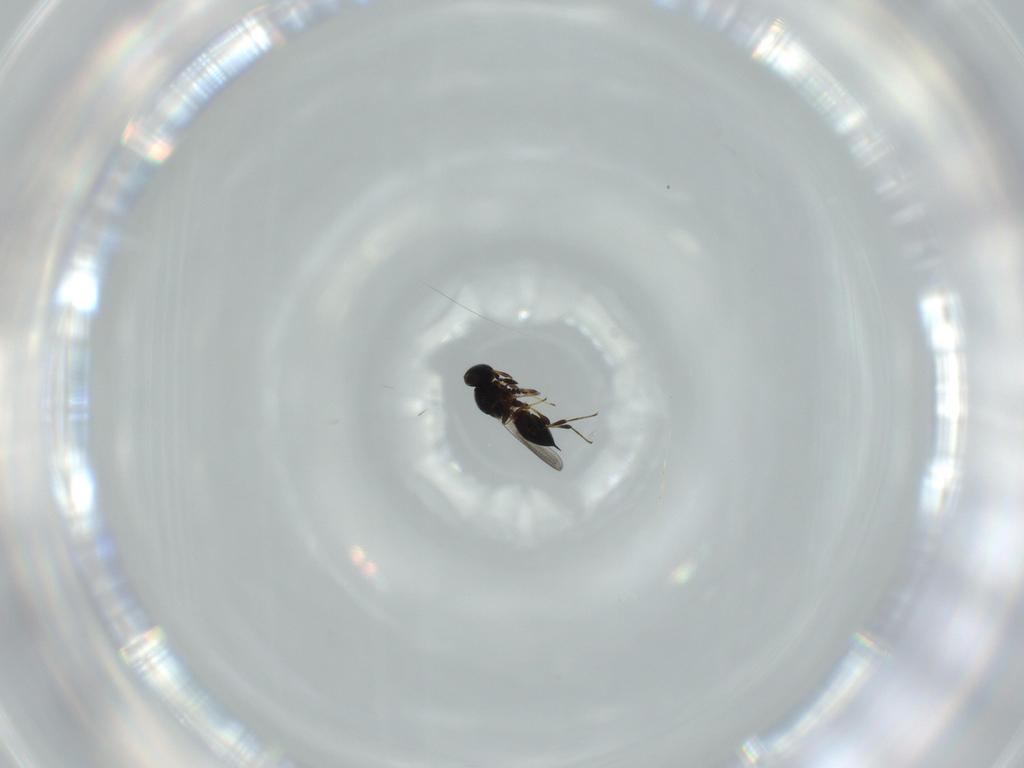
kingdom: Animalia
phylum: Arthropoda
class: Insecta
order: Hymenoptera
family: Platygastridae
